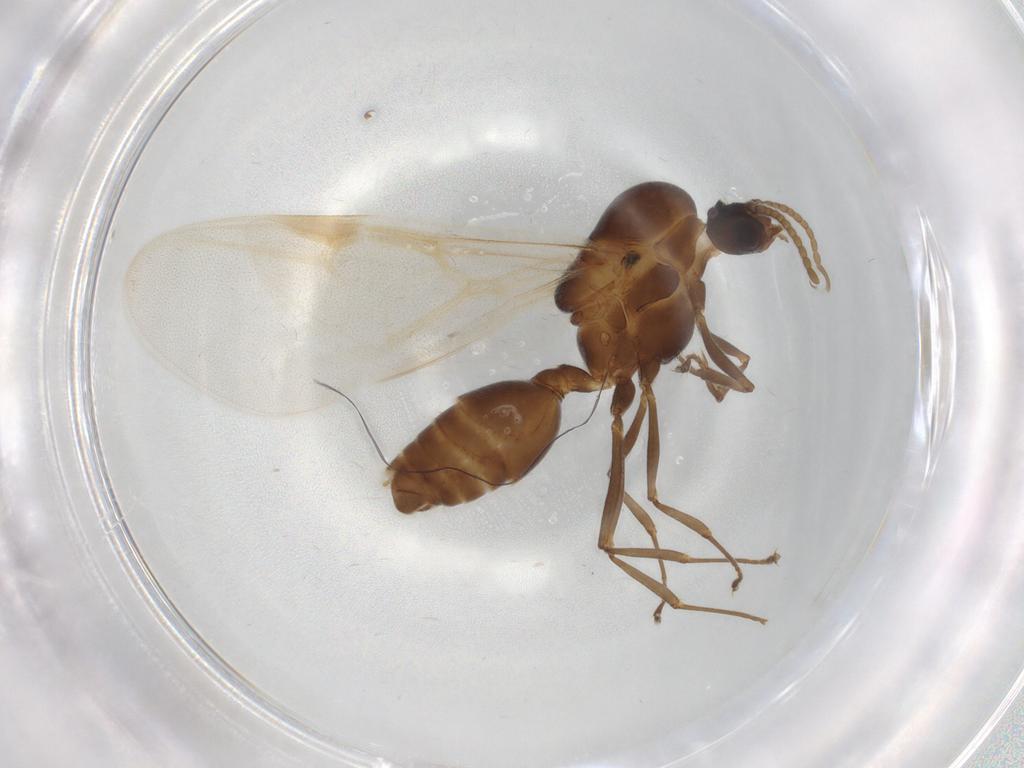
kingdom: Animalia
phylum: Arthropoda
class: Insecta
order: Hymenoptera
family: Formicidae
